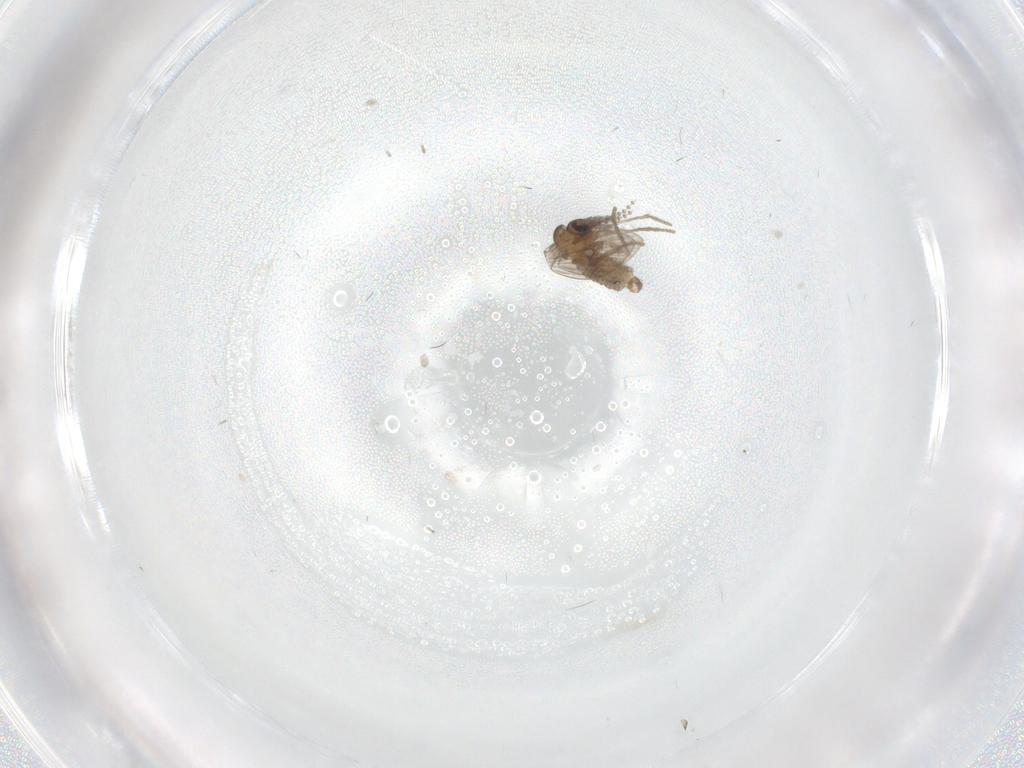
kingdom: Animalia
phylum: Arthropoda
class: Insecta
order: Diptera
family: Psychodidae
